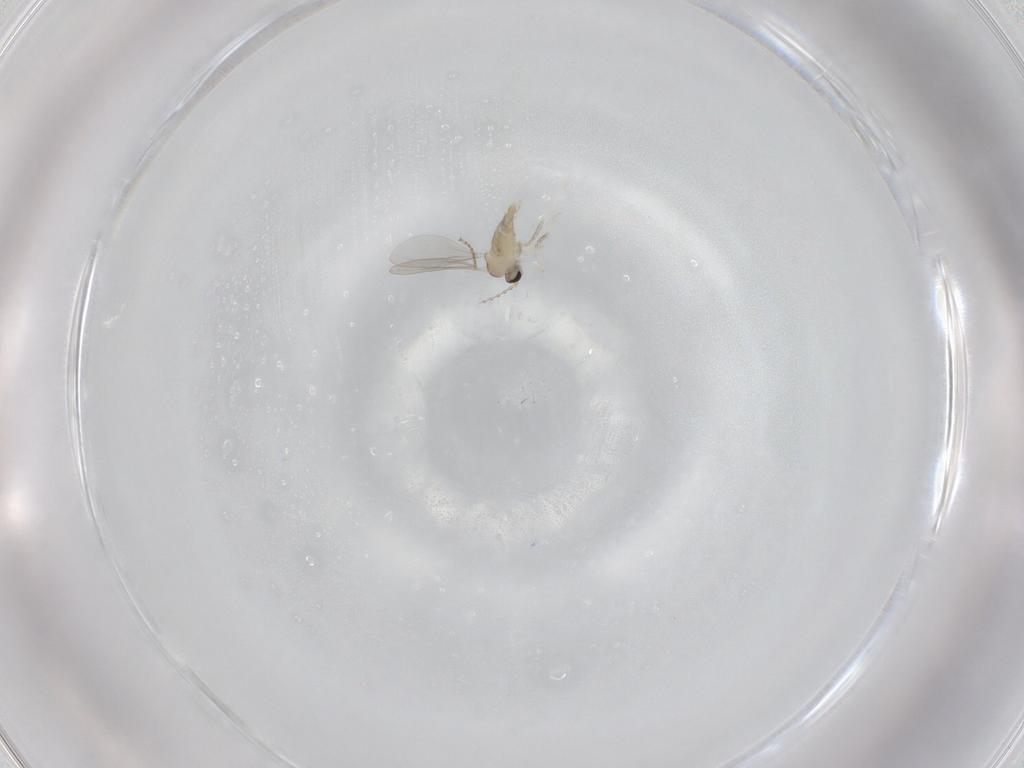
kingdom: Animalia
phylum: Arthropoda
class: Insecta
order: Diptera
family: Cecidomyiidae
